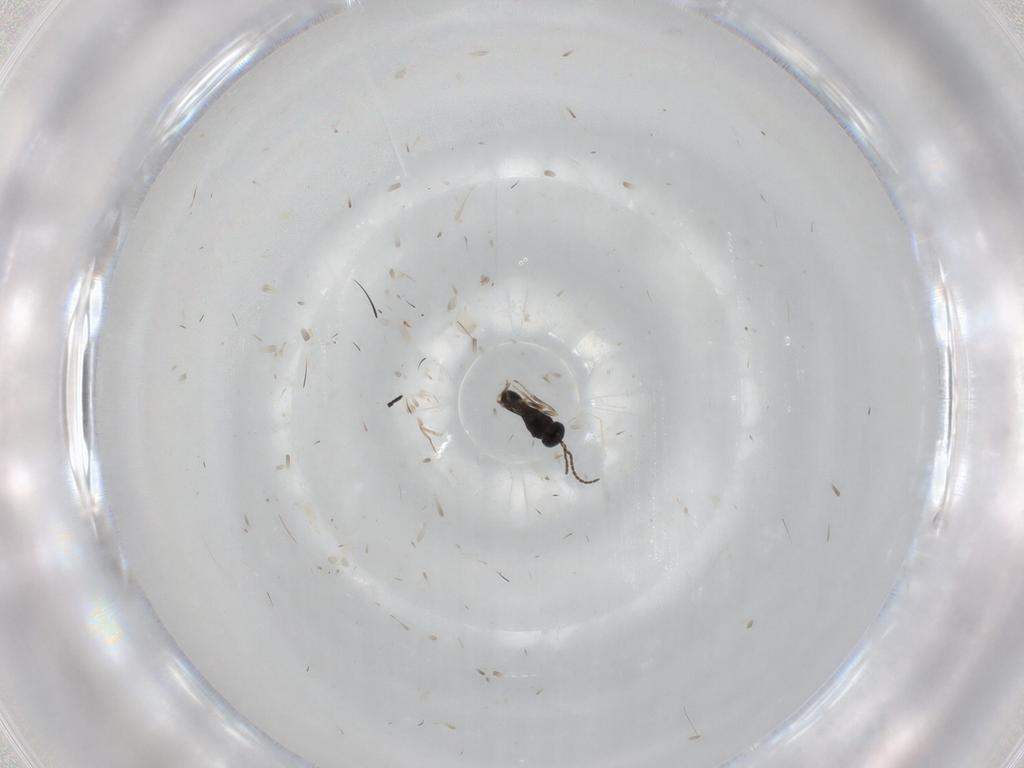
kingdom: Animalia
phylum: Arthropoda
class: Insecta
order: Hymenoptera
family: Scelionidae
